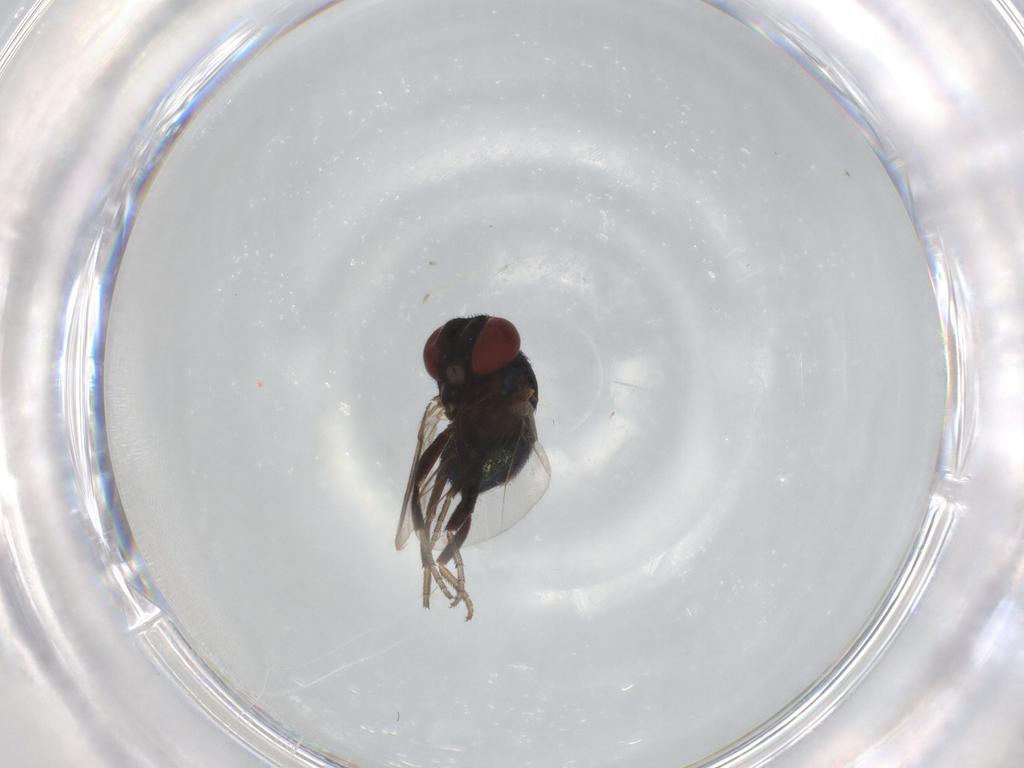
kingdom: Animalia
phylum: Arthropoda
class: Insecta
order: Diptera
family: Cryptochetidae
